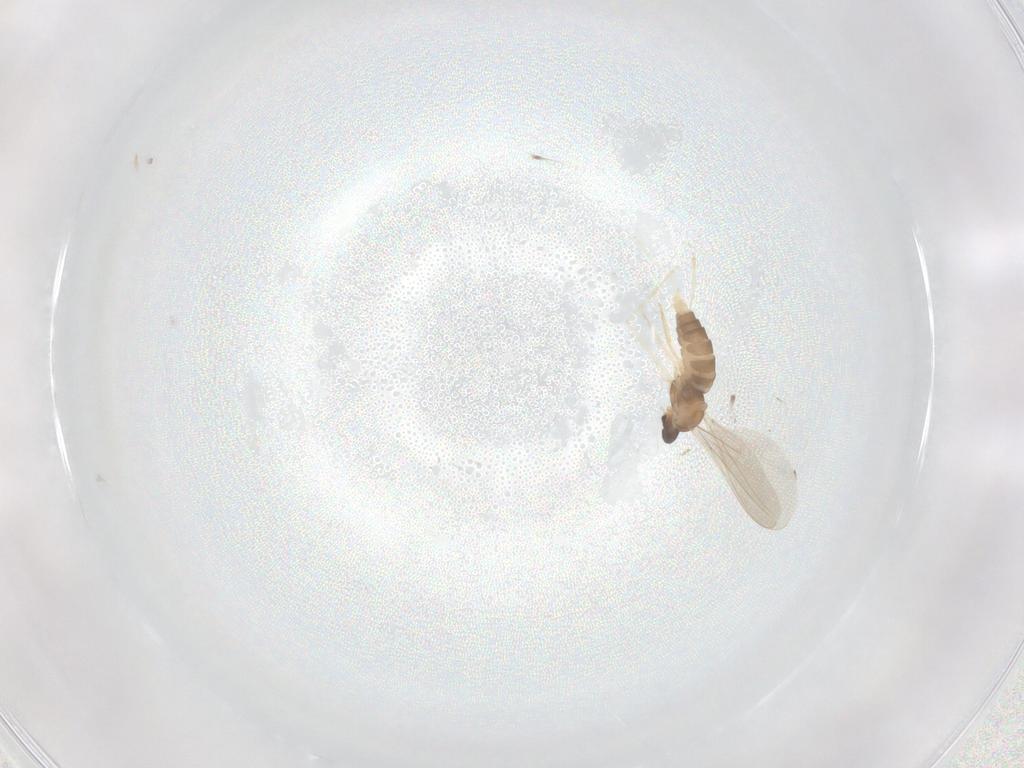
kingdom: Animalia
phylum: Arthropoda
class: Insecta
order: Diptera
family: Cecidomyiidae
